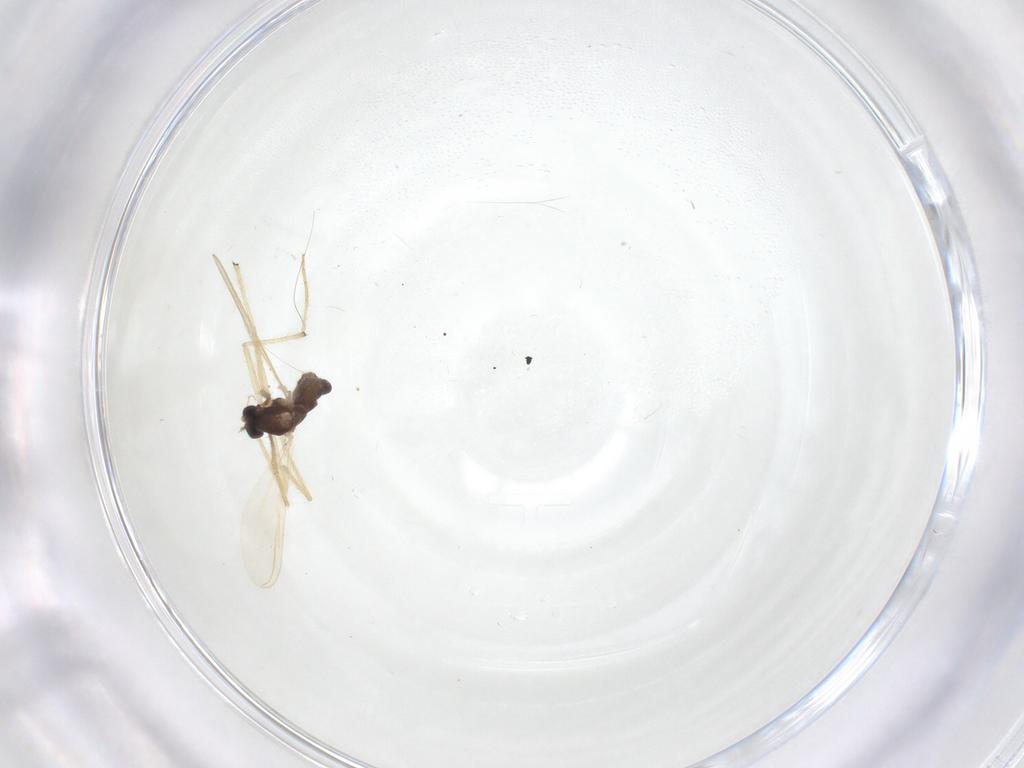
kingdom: Animalia
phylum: Arthropoda
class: Insecta
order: Diptera
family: Chironomidae
